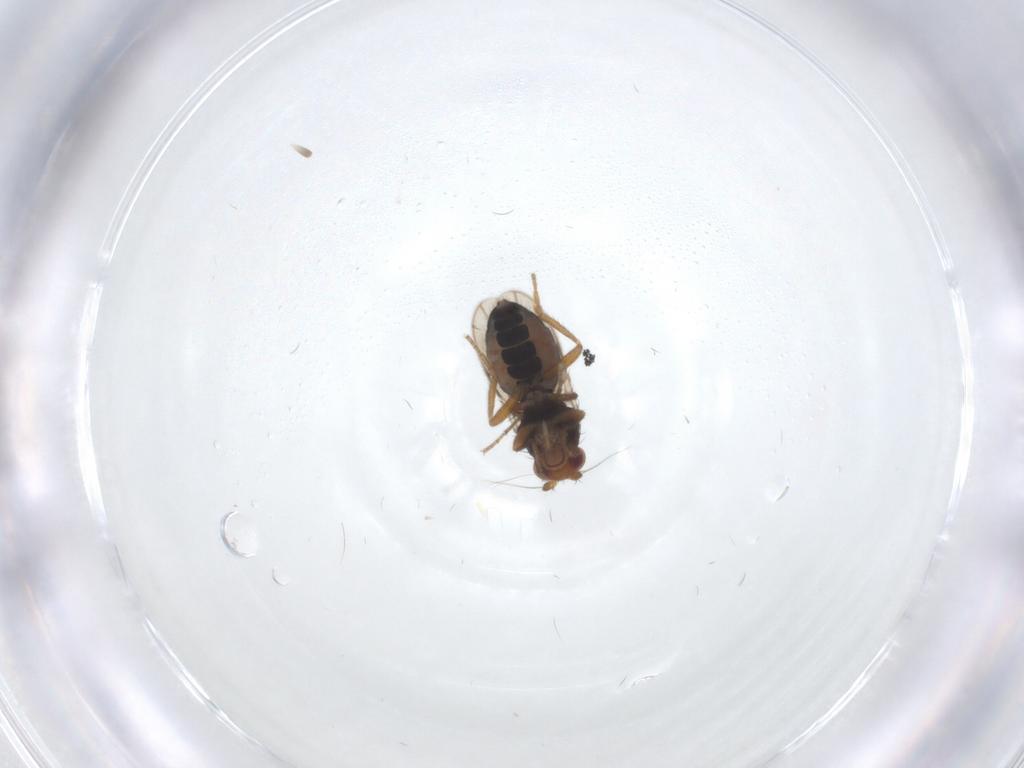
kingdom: Animalia
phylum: Arthropoda
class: Insecta
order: Diptera
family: Sphaeroceridae
